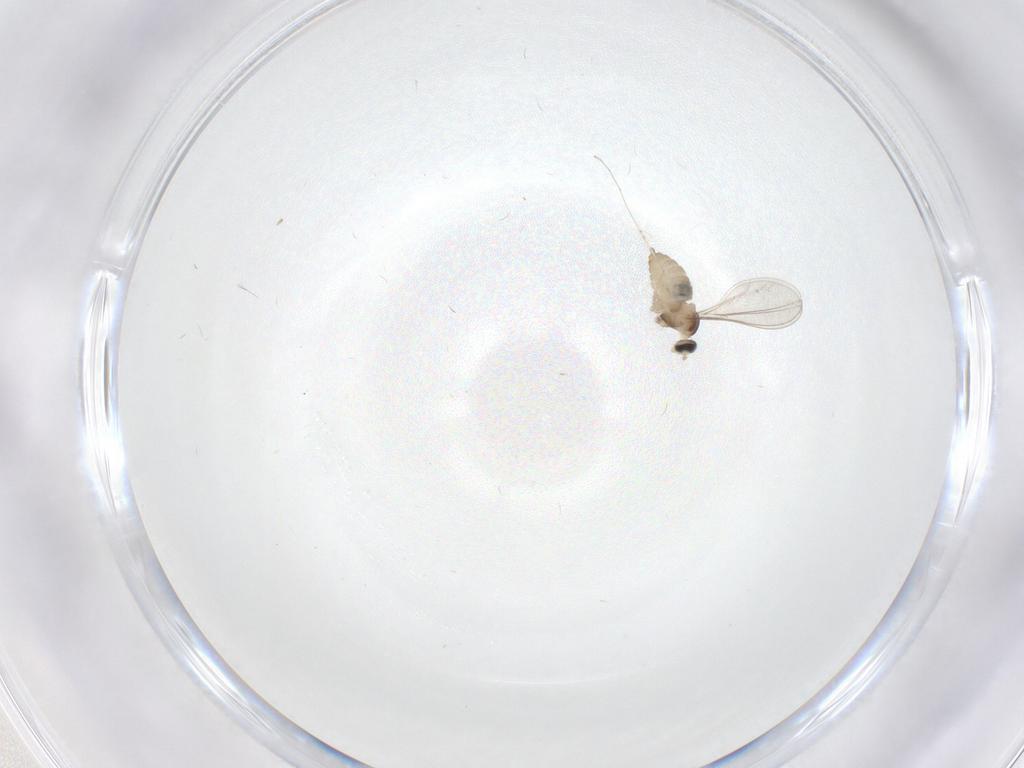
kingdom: Animalia
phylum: Arthropoda
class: Insecta
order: Diptera
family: Cecidomyiidae
